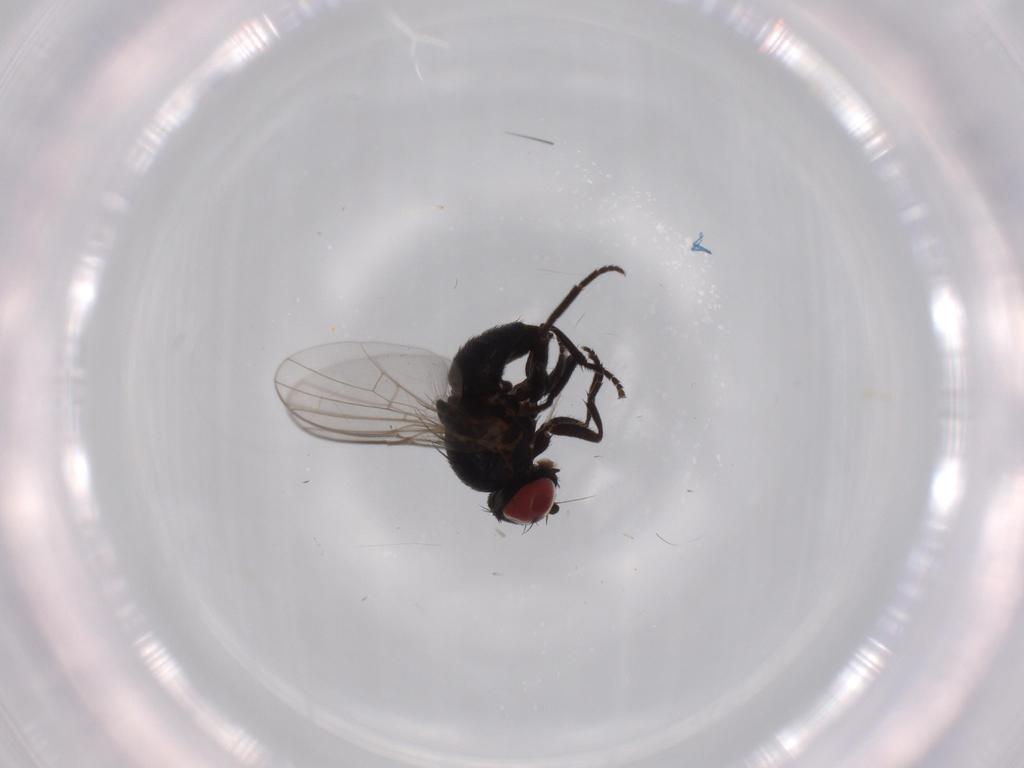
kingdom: Animalia
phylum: Arthropoda
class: Insecta
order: Diptera
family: Phoridae
